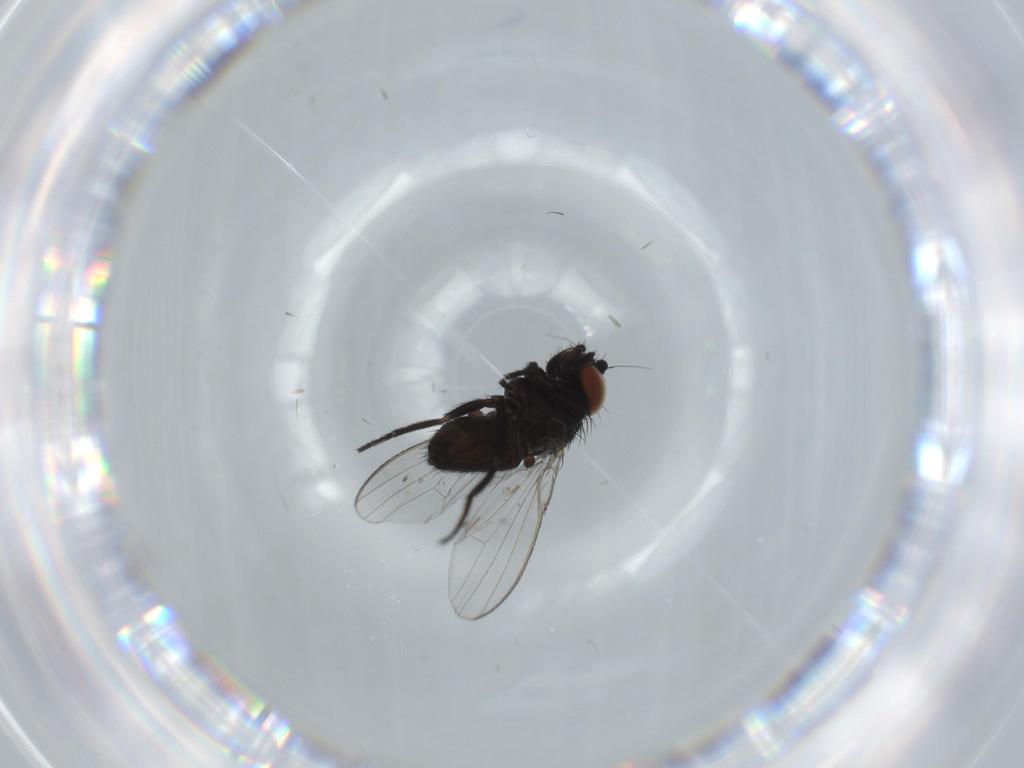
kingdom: Animalia
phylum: Arthropoda
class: Insecta
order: Diptera
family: Milichiidae
